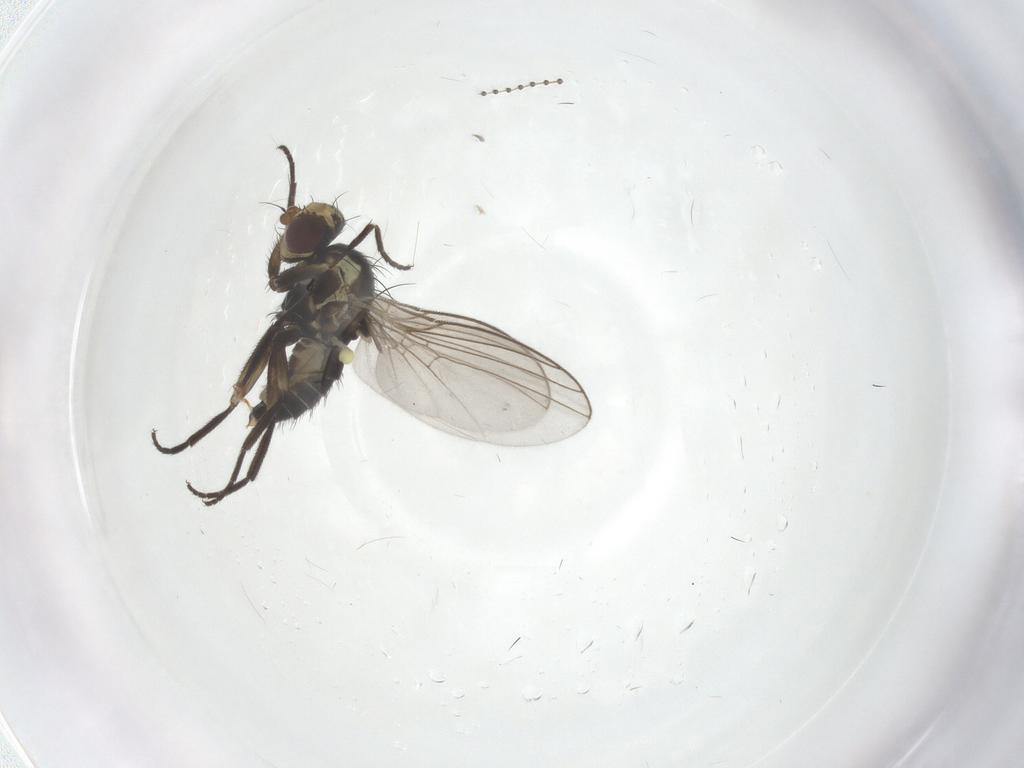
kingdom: Animalia
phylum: Arthropoda
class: Insecta
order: Diptera
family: Agromyzidae
